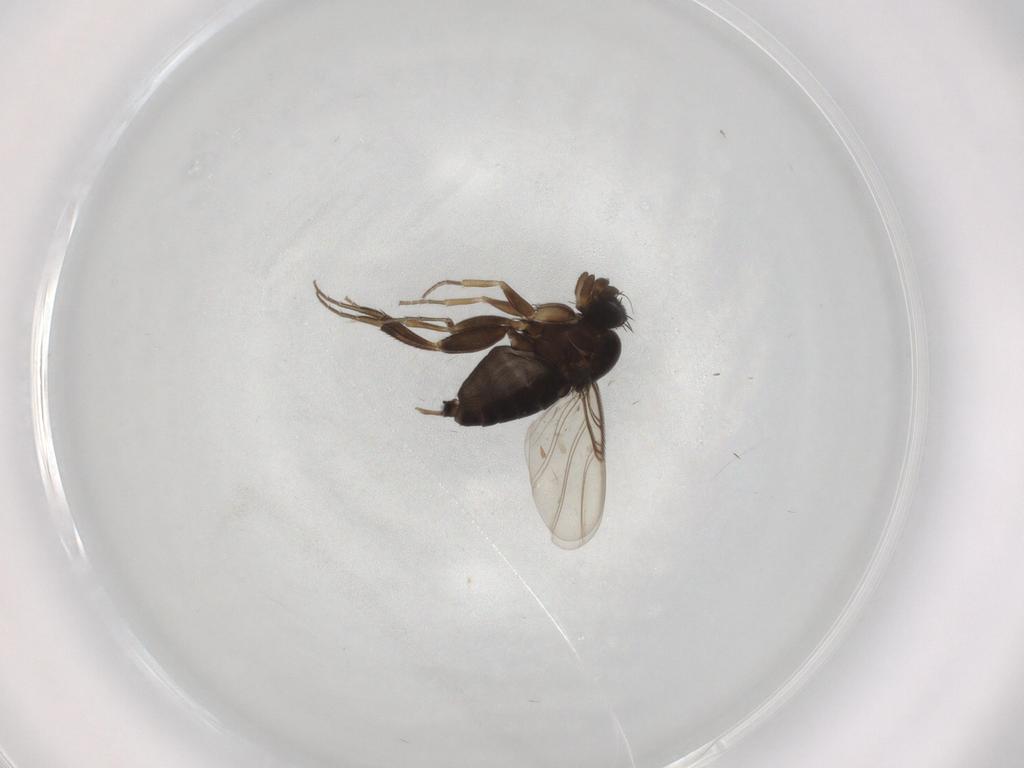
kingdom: Animalia
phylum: Arthropoda
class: Insecta
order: Diptera
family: Phoridae
